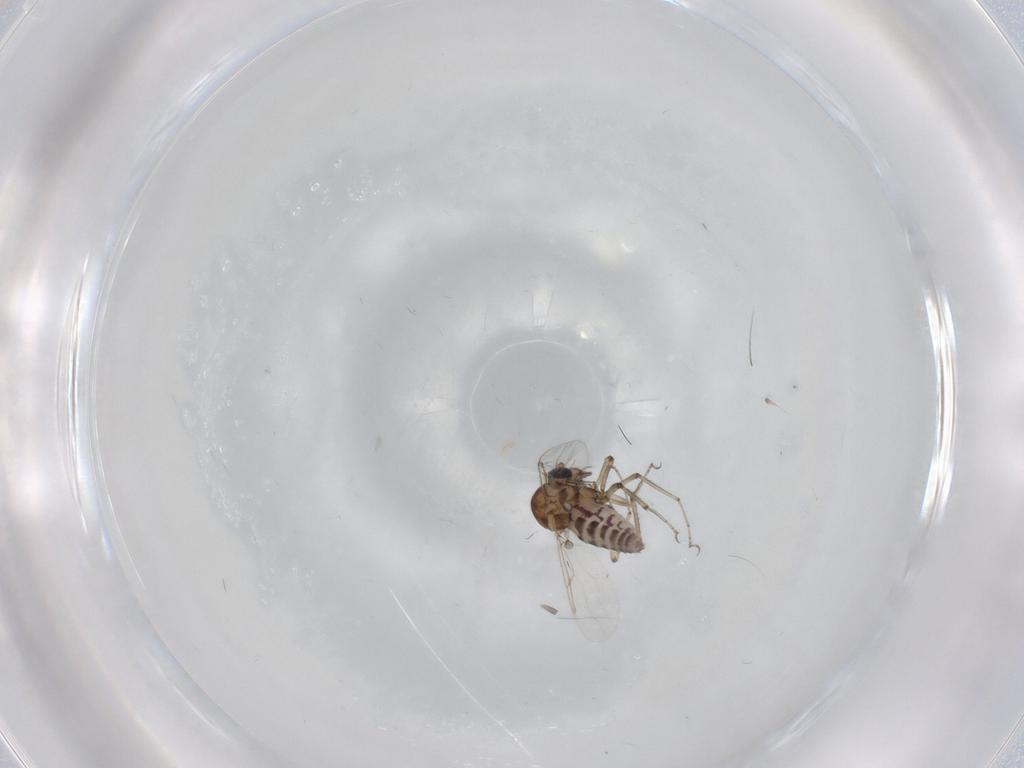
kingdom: Animalia
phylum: Arthropoda
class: Insecta
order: Diptera
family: Ceratopogonidae
